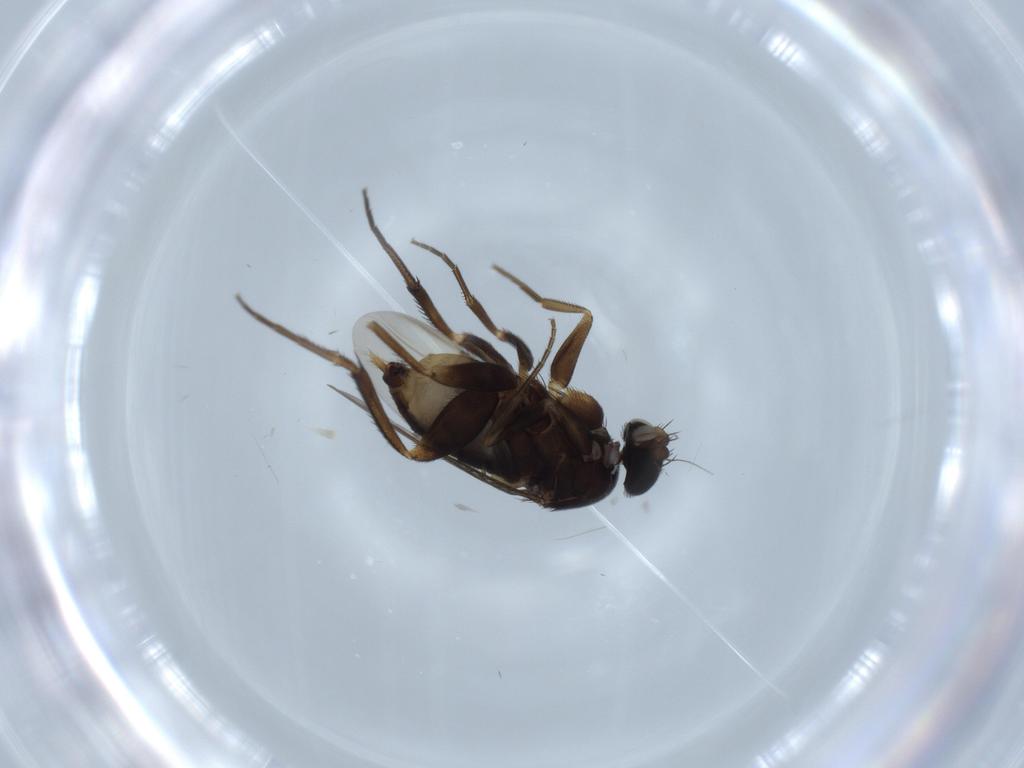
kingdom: Animalia
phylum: Arthropoda
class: Insecta
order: Diptera
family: Phoridae
